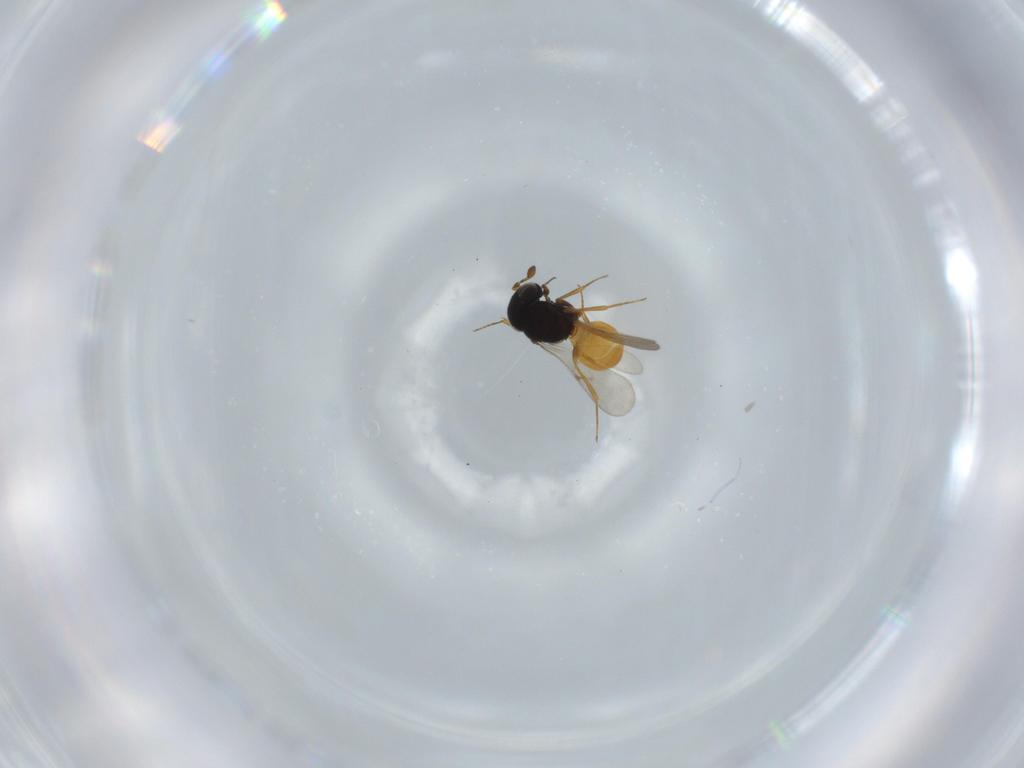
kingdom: Animalia
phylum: Arthropoda
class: Insecta
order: Hymenoptera
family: Scelionidae
